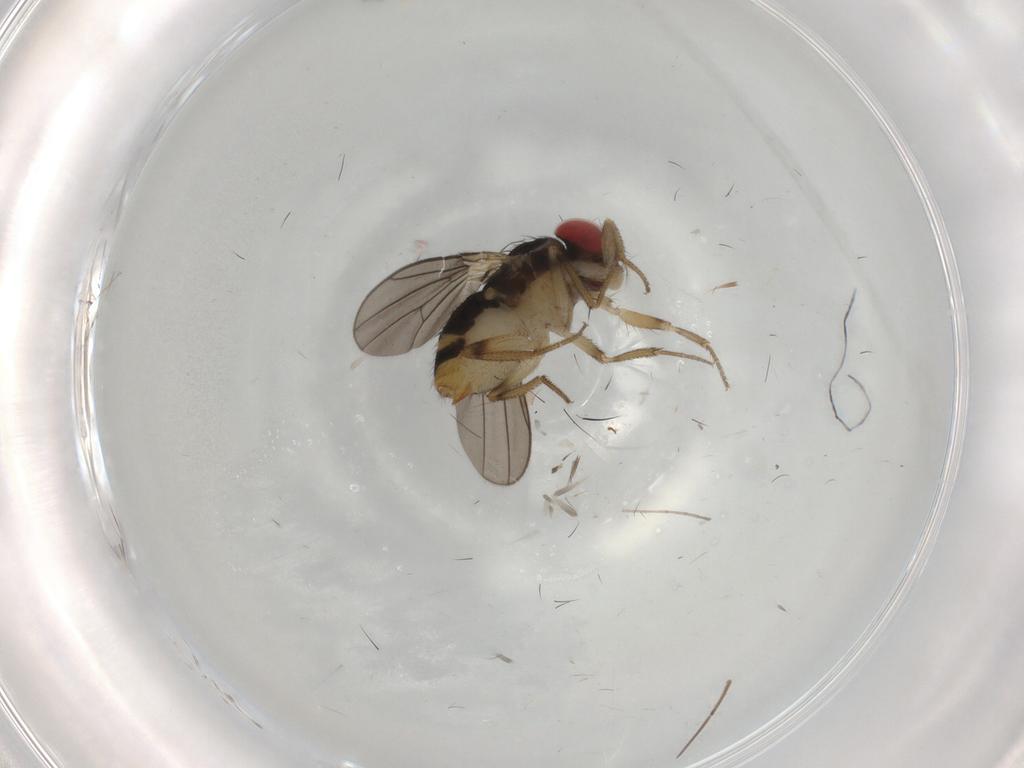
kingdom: Animalia
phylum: Arthropoda
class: Insecta
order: Diptera
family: Drosophilidae
